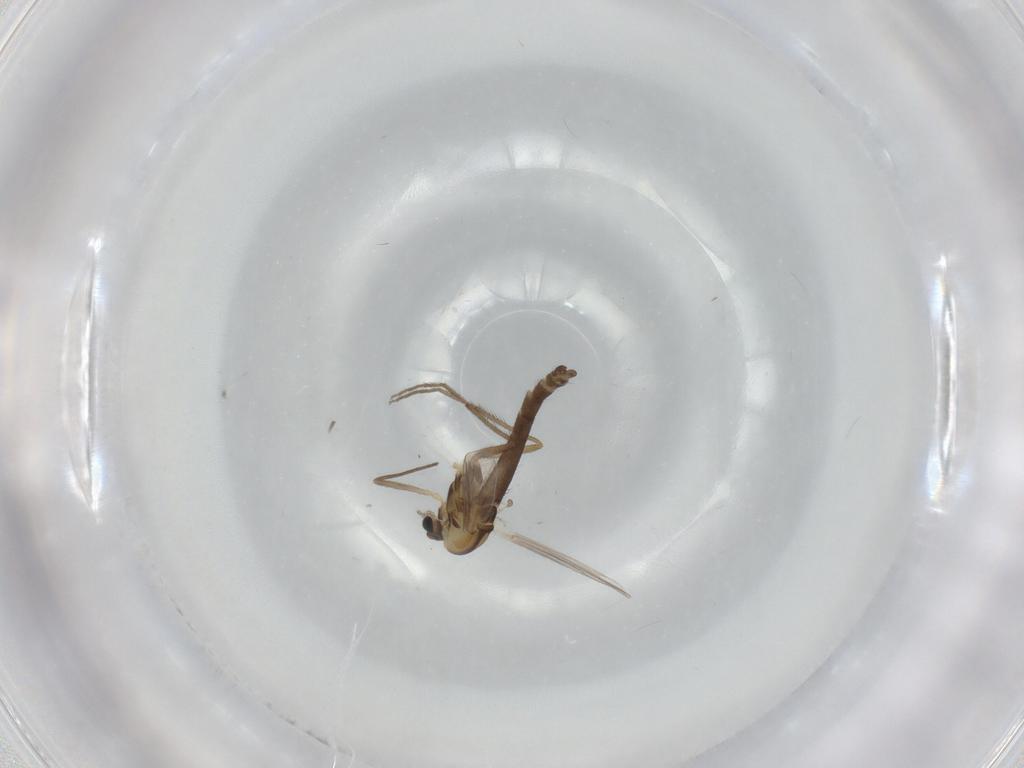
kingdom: Animalia
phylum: Arthropoda
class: Insecta
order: Diptera
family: Chironomidae
